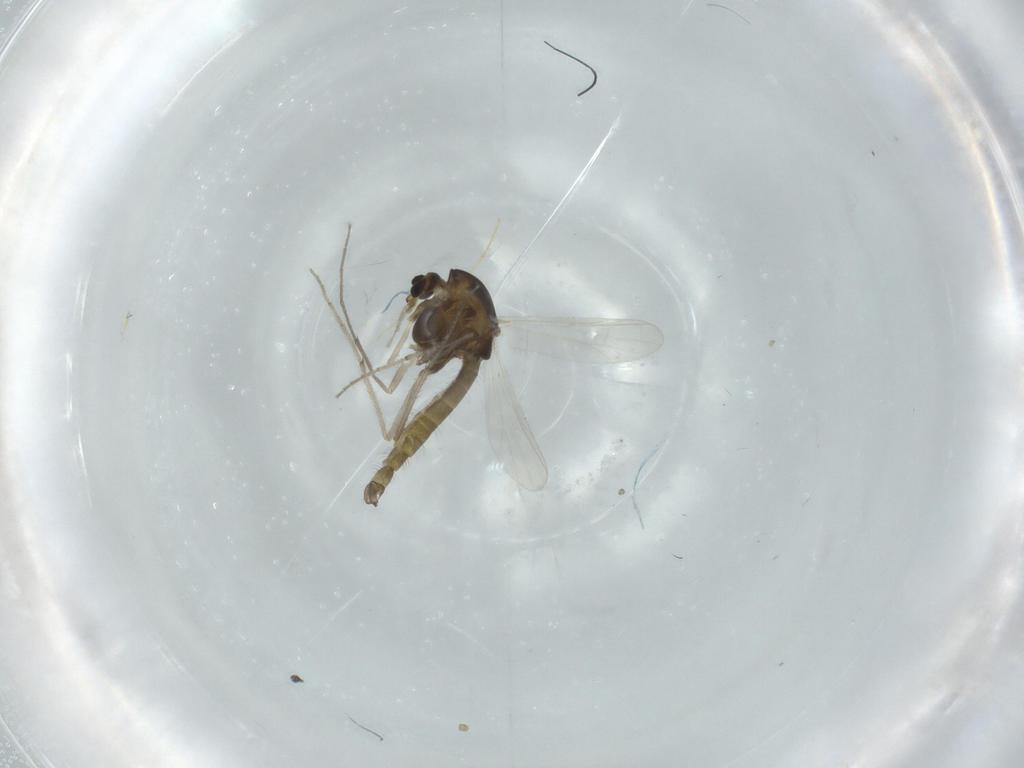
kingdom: Animalia
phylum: Arthropoda
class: Insecta
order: Diptera
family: Chironomidae
